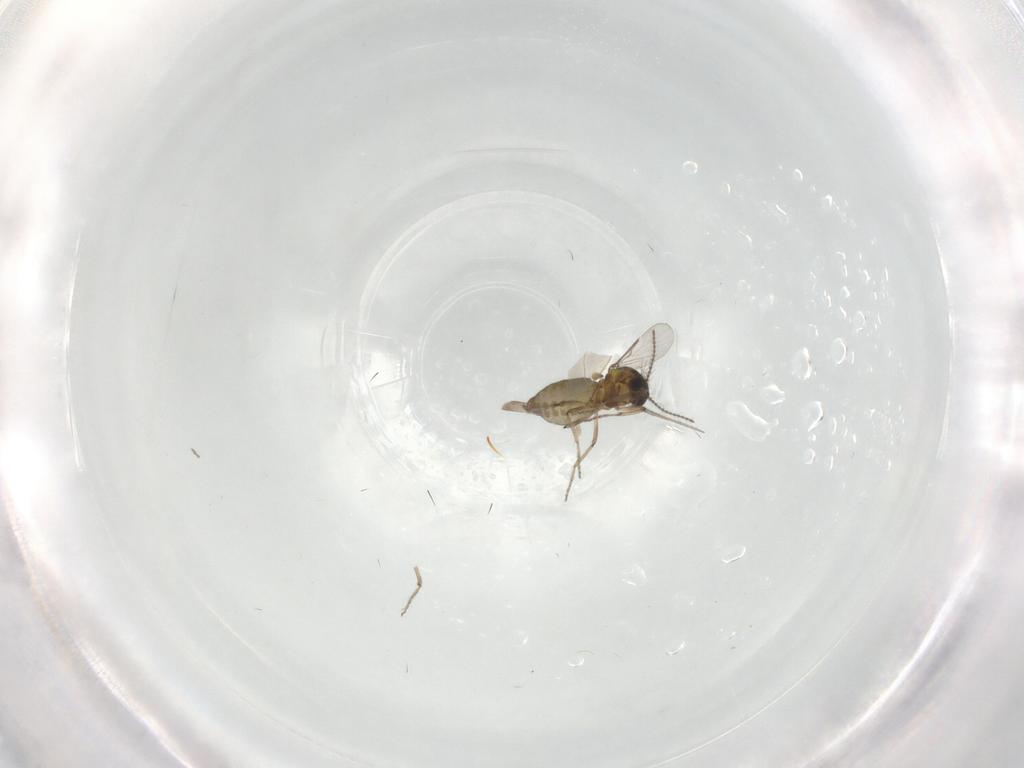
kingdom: Animalia
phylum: Arthropoda
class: Insecta
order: Diptera
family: Ceratopogonidae
